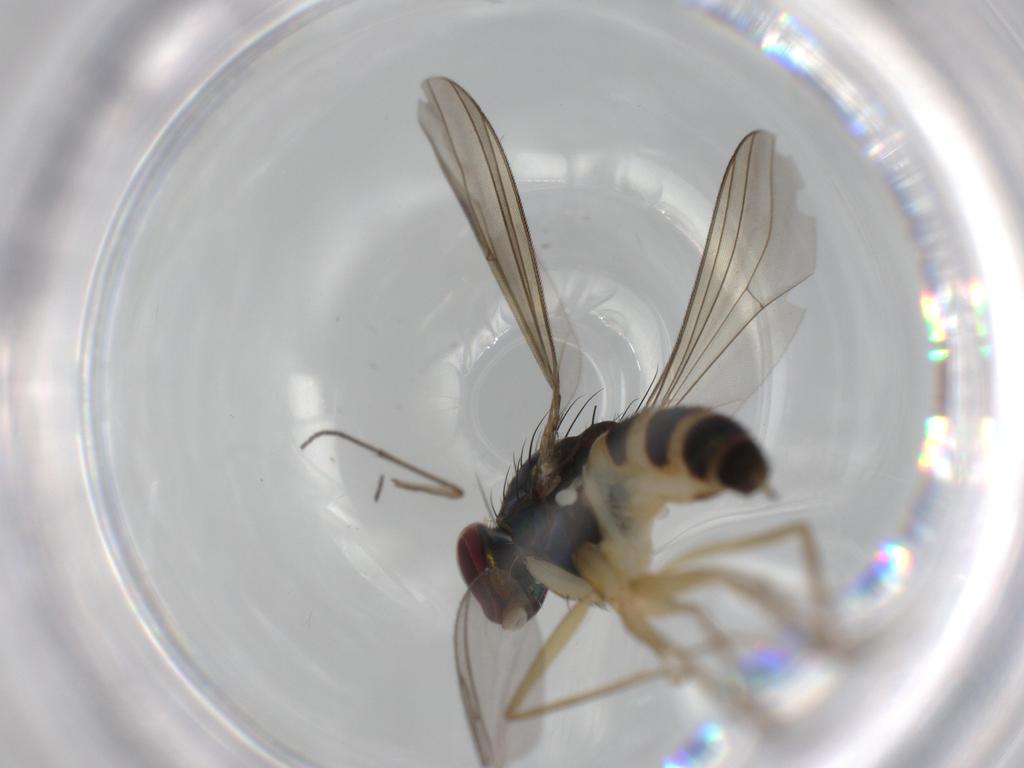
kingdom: Animalia
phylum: Arthropoda
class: Insecta
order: Diptera
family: Dolichopodidae
